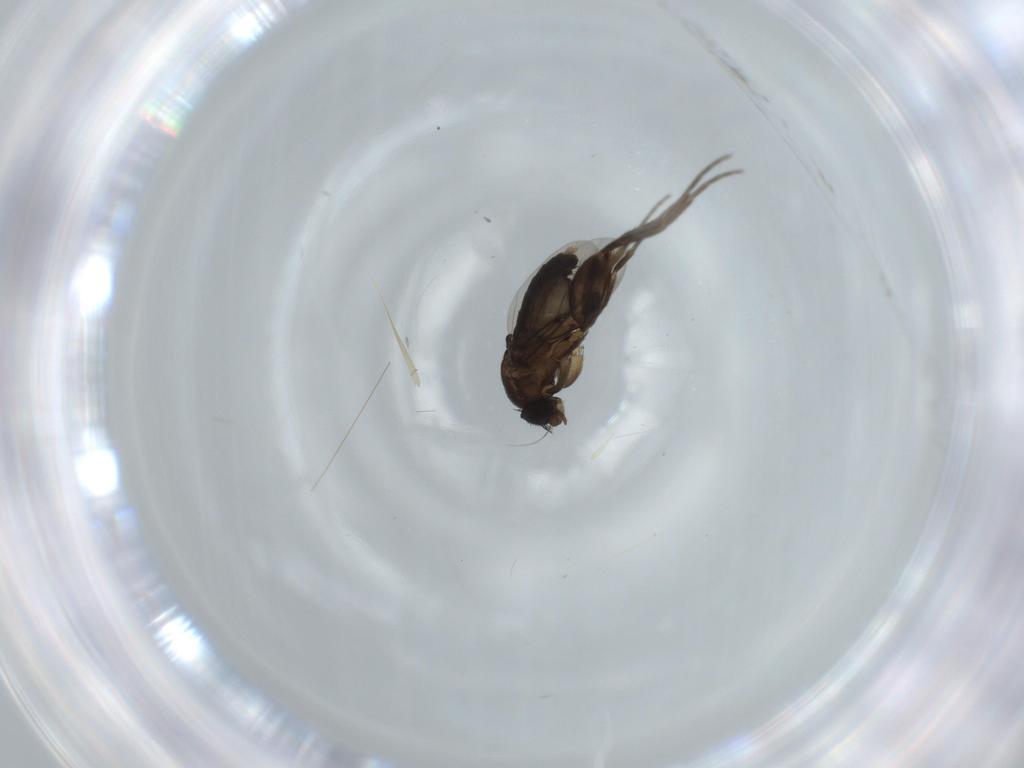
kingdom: Animalia
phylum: Arthropoda
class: Insecta
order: Diptera
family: Phoridae
